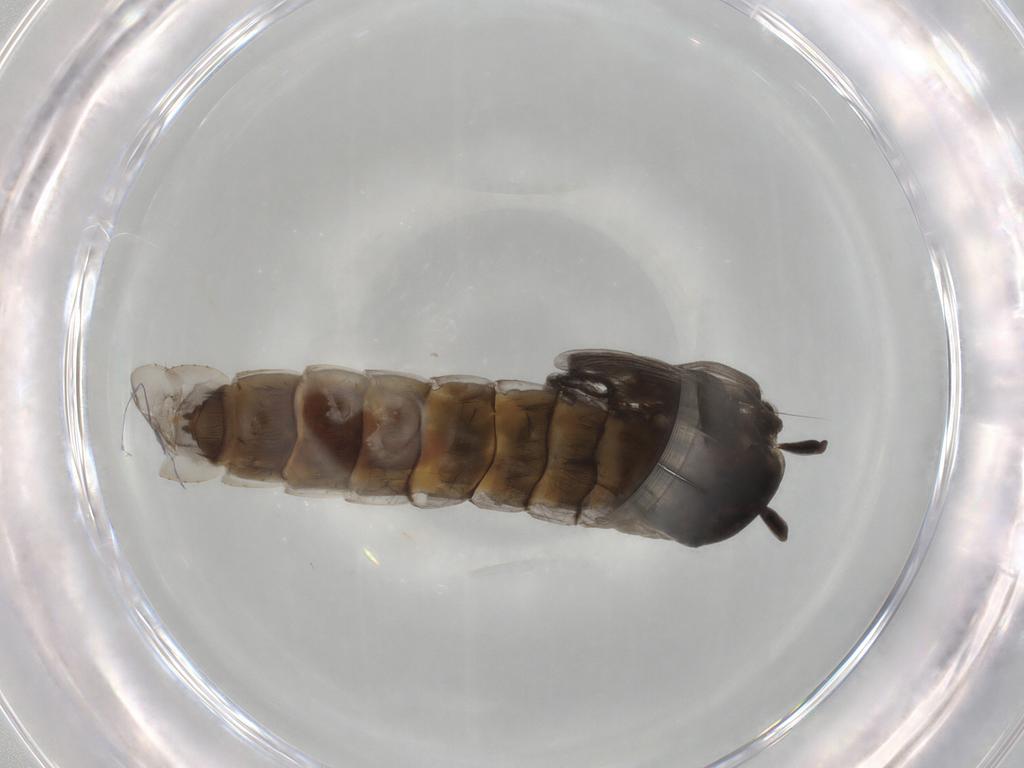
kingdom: Animalia
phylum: Arthropoda
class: Insecta
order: Diptera
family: Chironomidae
